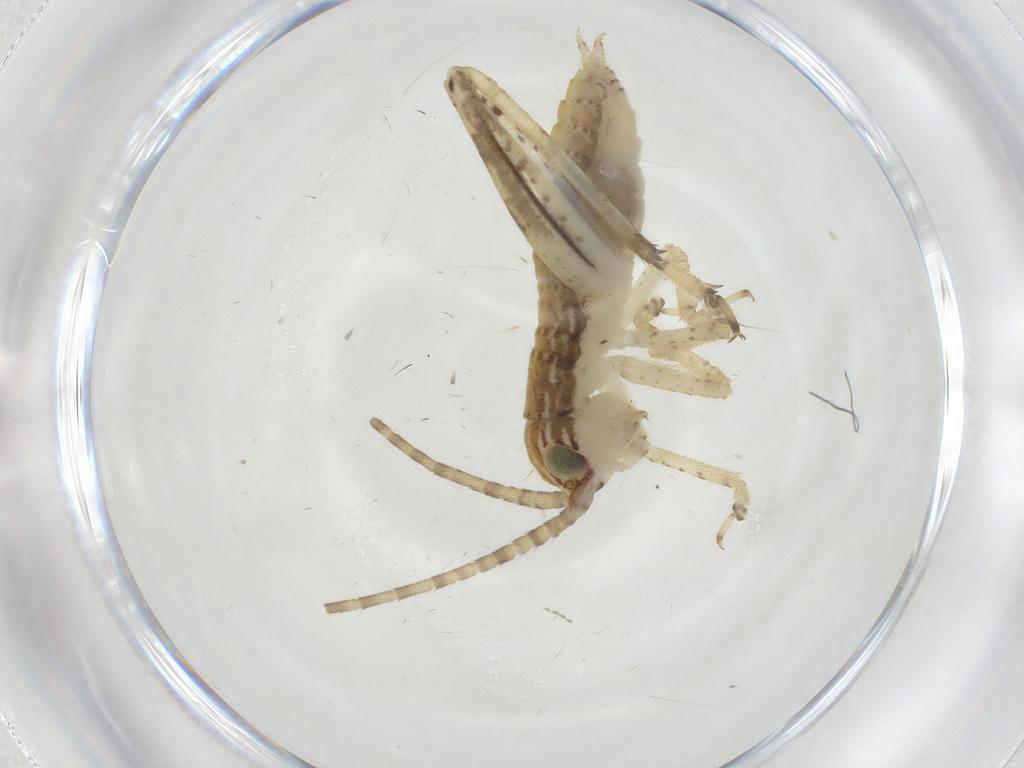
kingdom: Animalia
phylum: Arthropoda
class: Insecta
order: Orthoptera
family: Gryllidae
